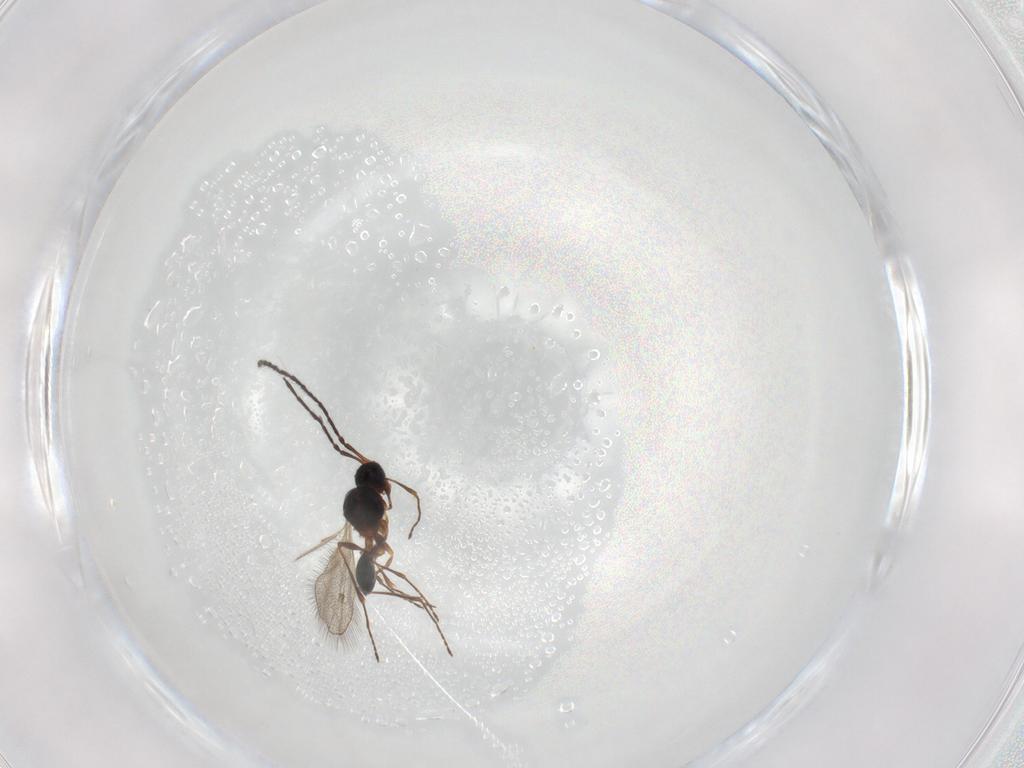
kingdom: Animalia
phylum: Arthropoda
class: Insecta
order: Hymenoptera
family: Diapriidae
